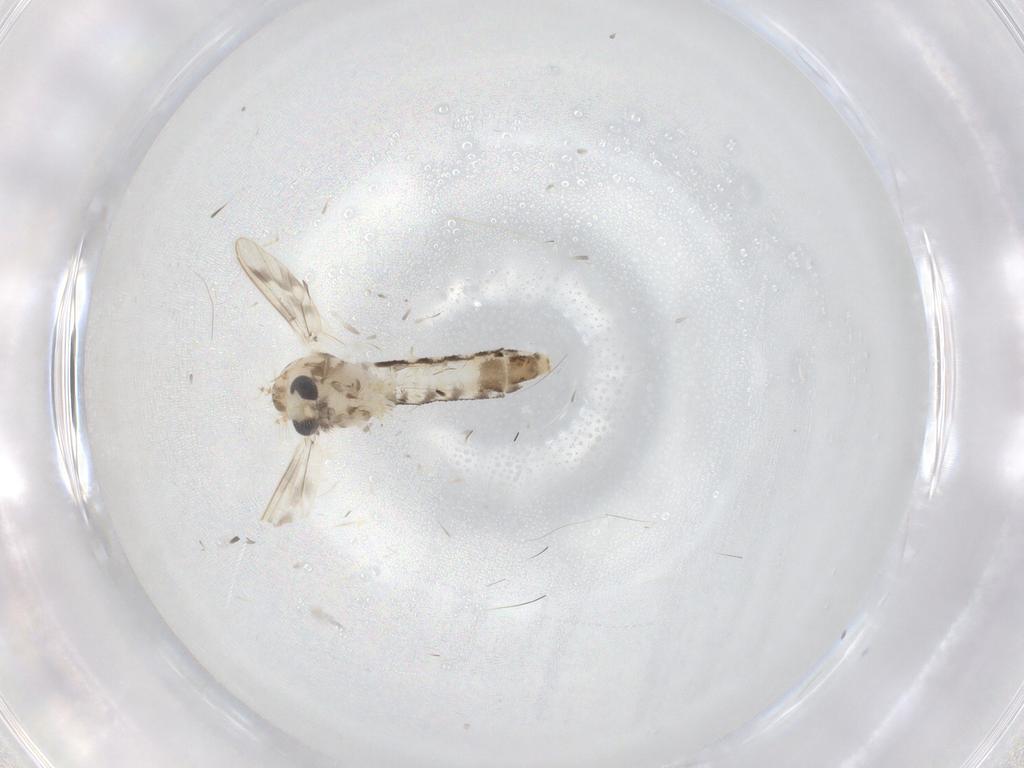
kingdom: Animalia
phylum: Arthropoda
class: Insecta
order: Diptera
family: Corethrellidae
